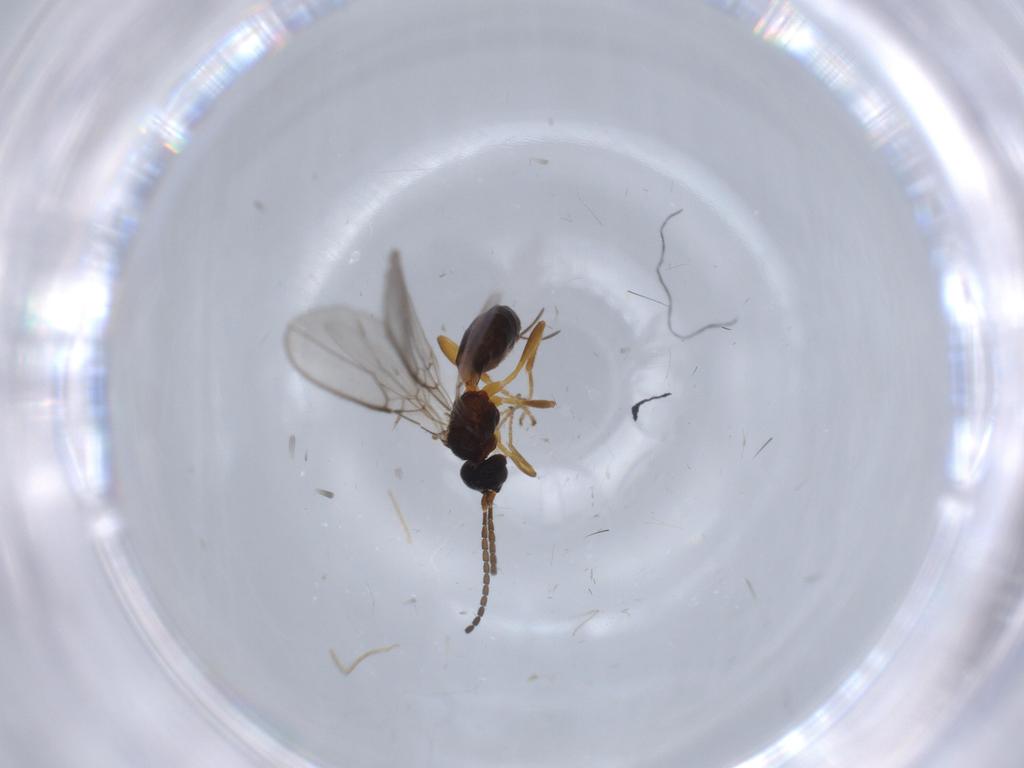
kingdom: Animalia
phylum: Arthropoda
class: Insecta
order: Hymenoptera
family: Braconidae
